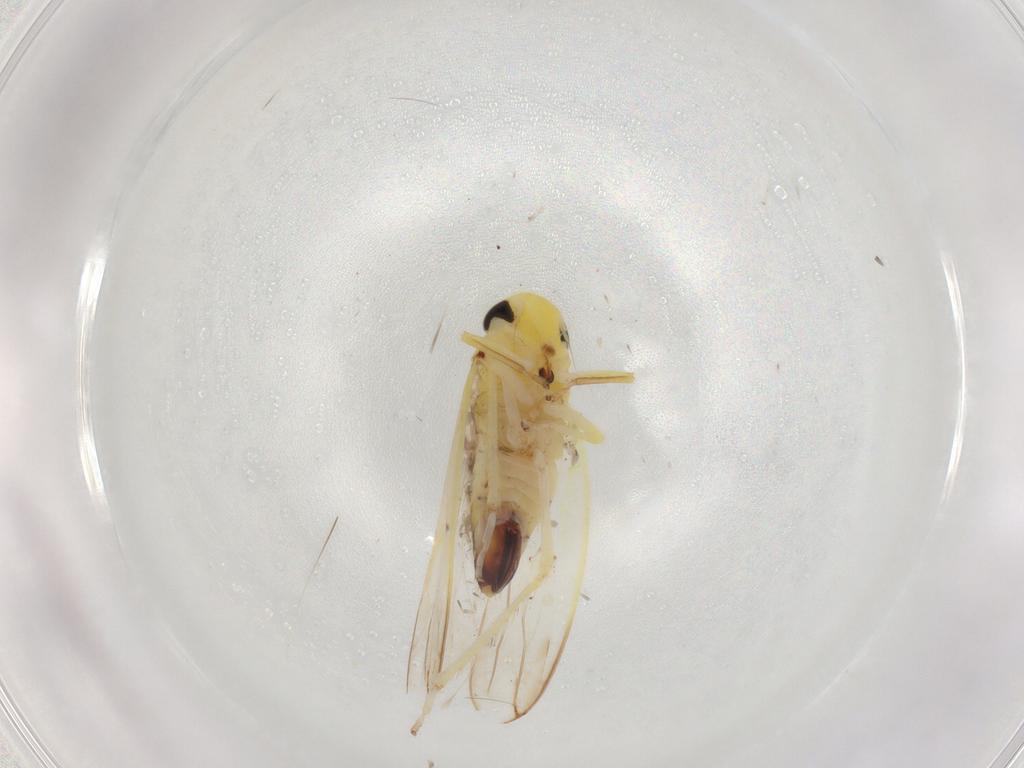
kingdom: Animalia
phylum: Arthropoda
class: Insecta
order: Hemiptera
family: Cicadellidae
